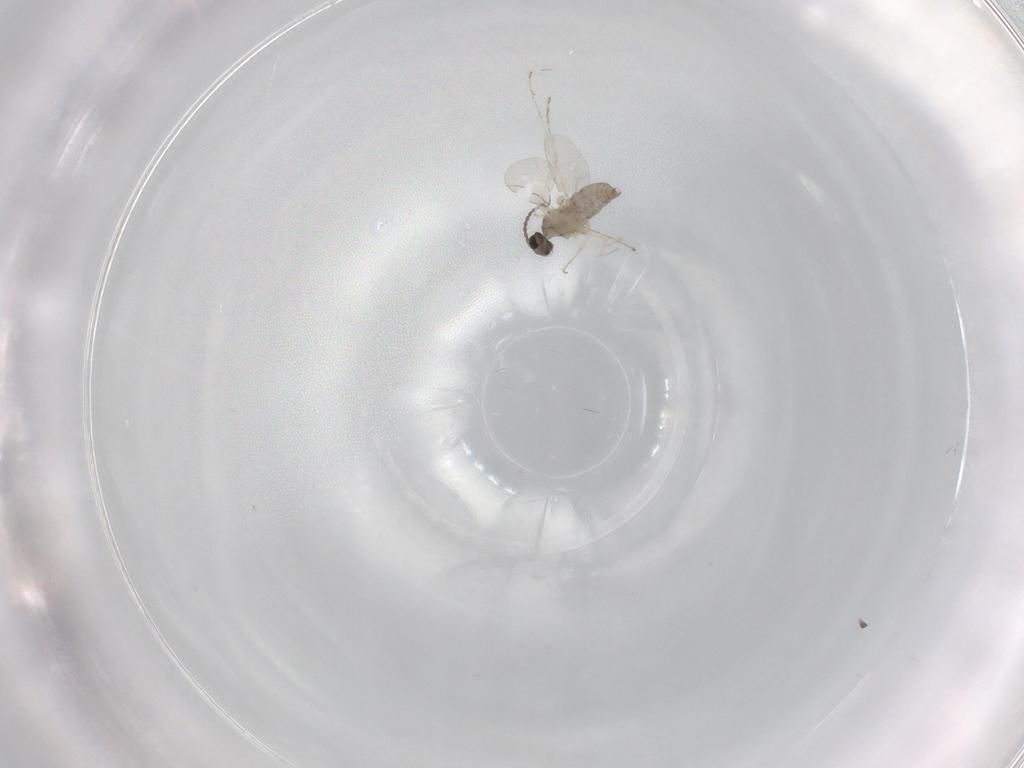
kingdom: Animalia
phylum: Arthropoda
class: Insecta
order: Diptera
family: Cecidomyiidae
